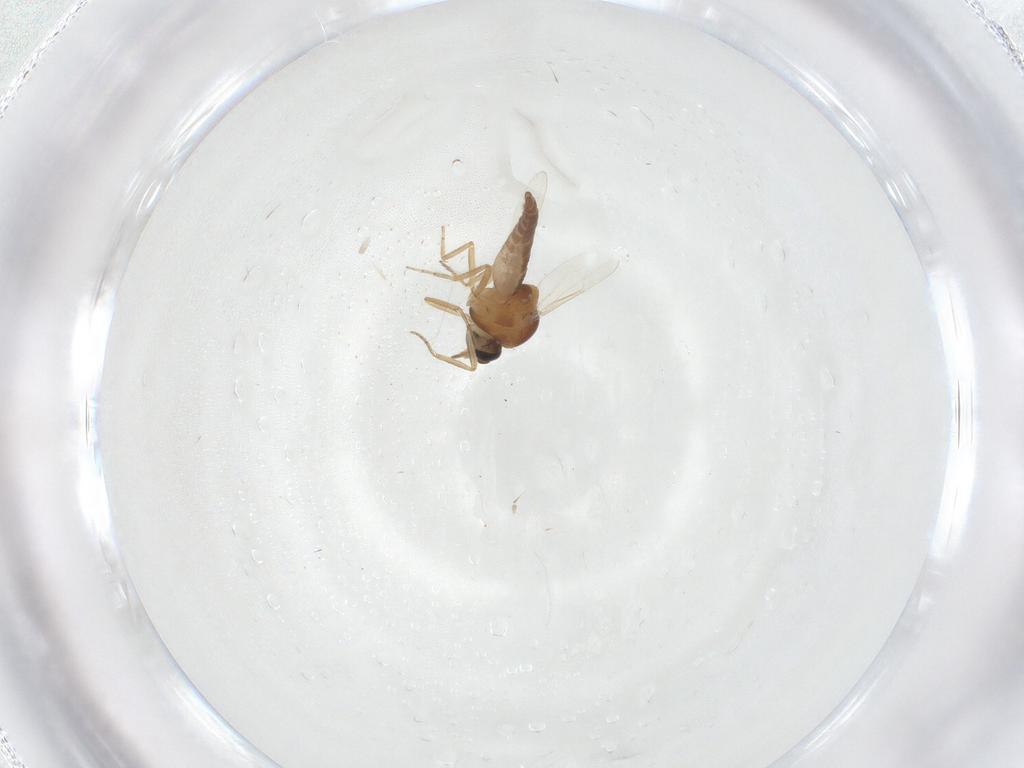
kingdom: Animalia
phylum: Arthropoda
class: Insecta
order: Diptera
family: Ceratopogonidae
